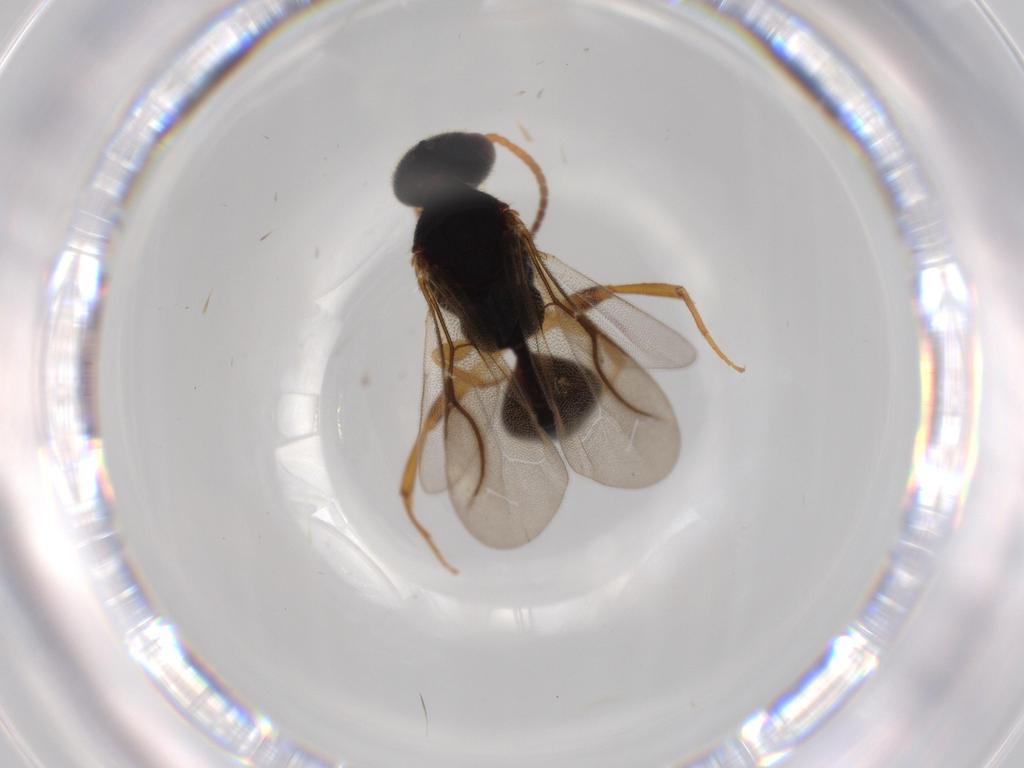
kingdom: Animalia
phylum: Arthropoda
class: Insecta
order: Hymenoptera
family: Bethylidae
